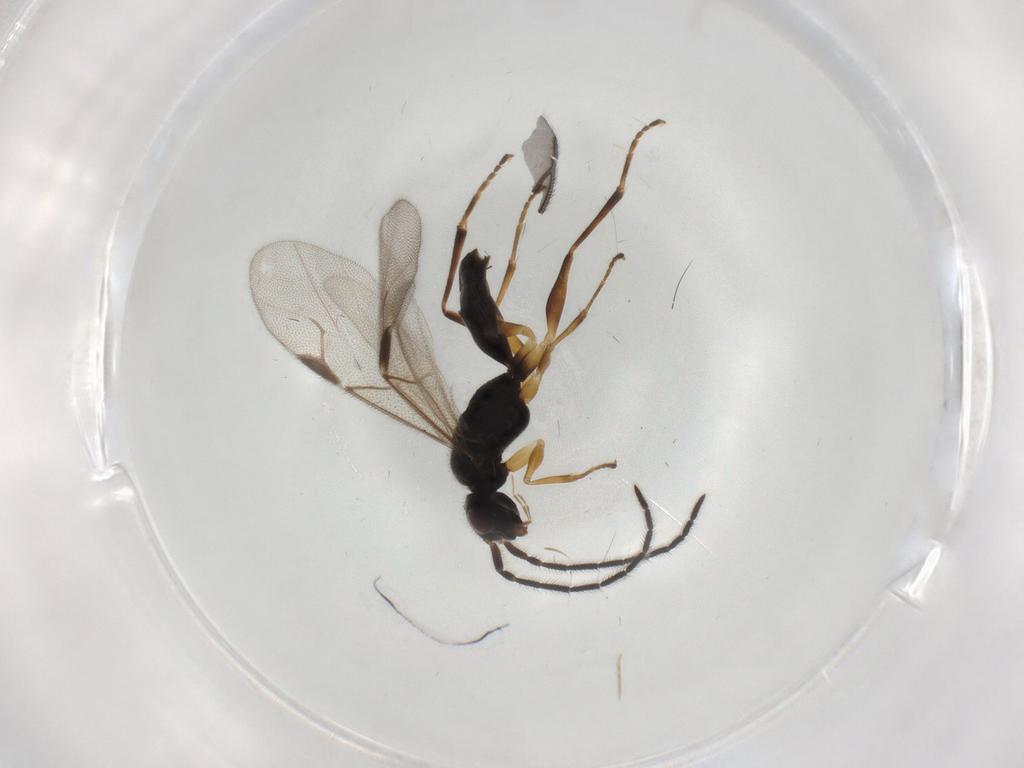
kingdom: Animalia
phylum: Arthropoda
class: Insecta
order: Hymenoptera
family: Dryinidae
